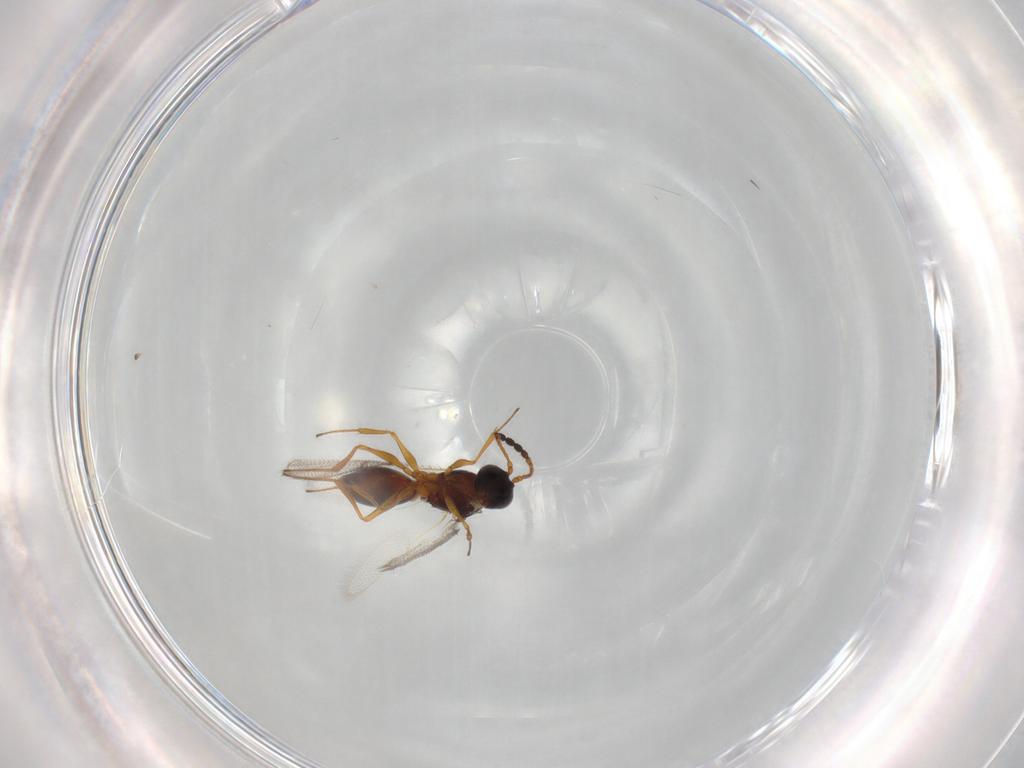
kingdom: Animalia
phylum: Arthropoda
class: Insecta
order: Hymenoptera
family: Figitidae
